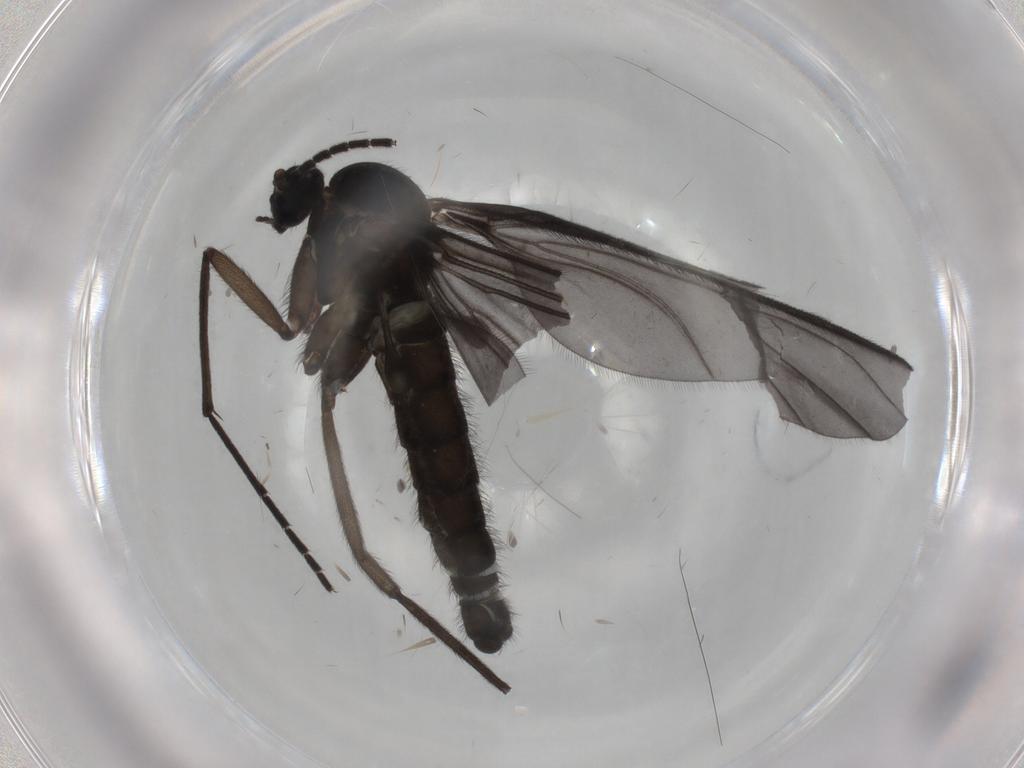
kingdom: Animalia
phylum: Arthropoda
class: Insecta
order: Diptera
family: Sciaridae
